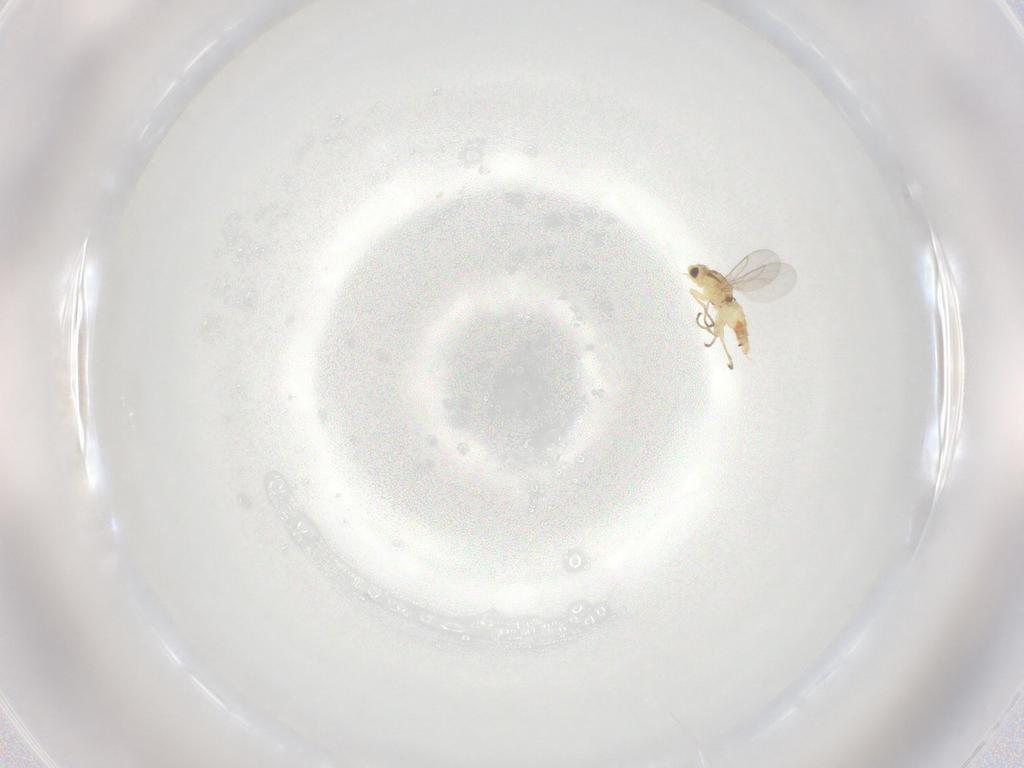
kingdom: Animalia
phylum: Arthropoda
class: Insecta
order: Diptera
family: Agromyzidae
